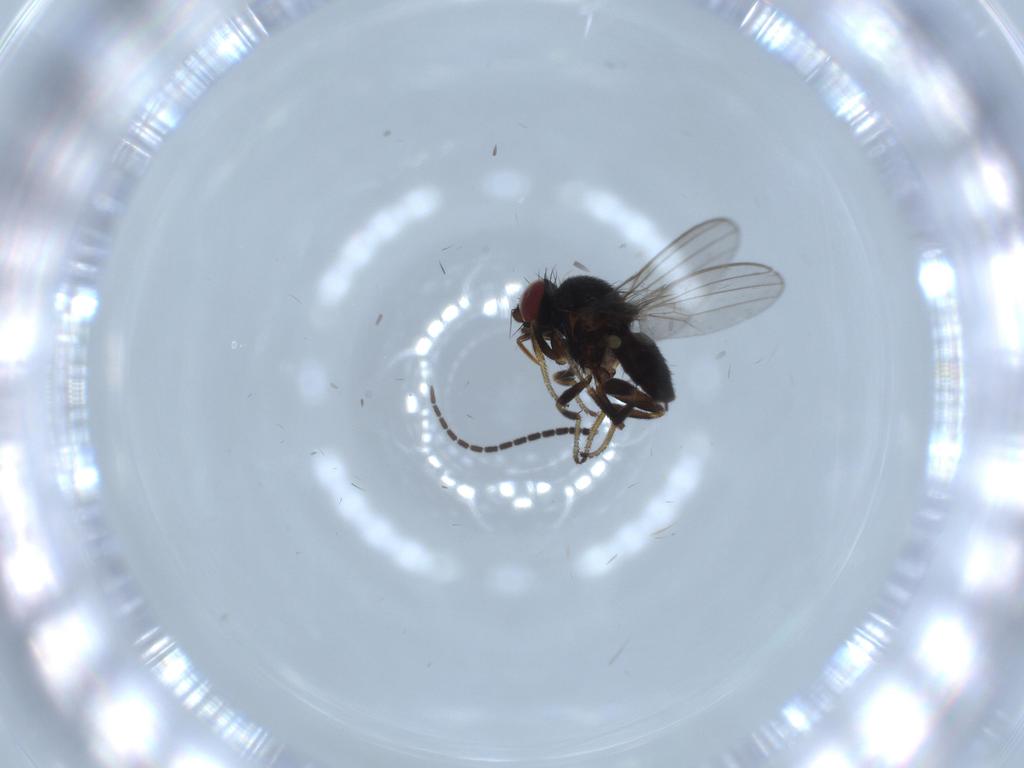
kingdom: Animalia
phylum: Arthropoda
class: Insecta
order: Diptera
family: Milichiidae
